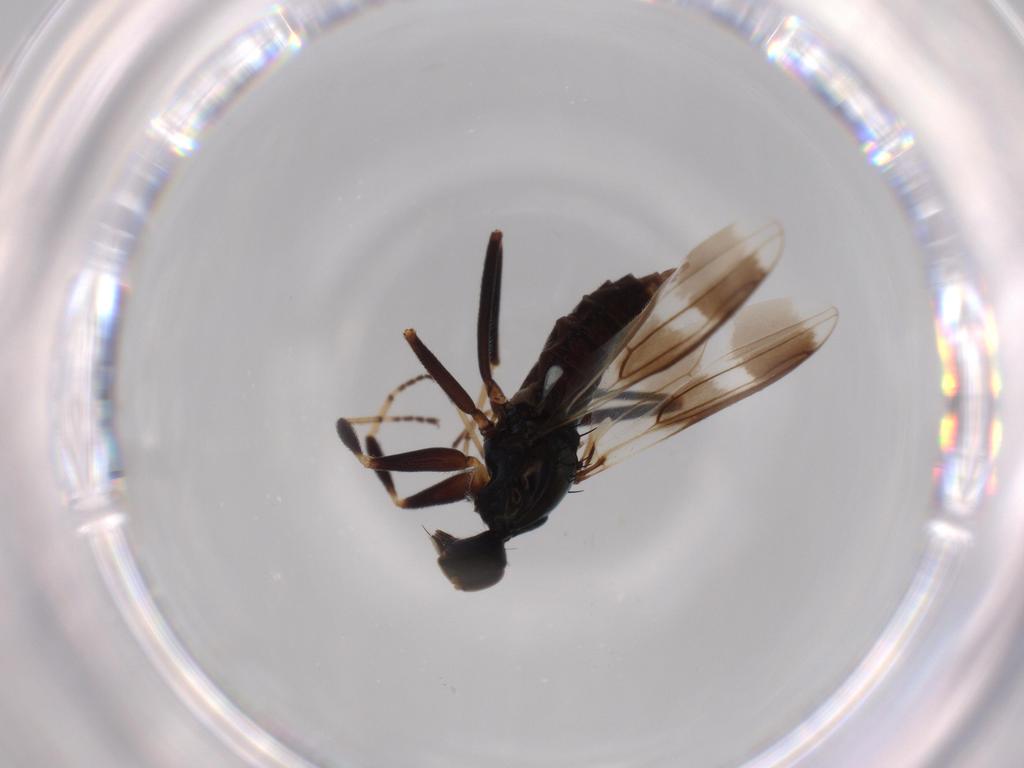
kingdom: Animalia
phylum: Arthropoda
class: Insecta
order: Diptera
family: Hybotidae
